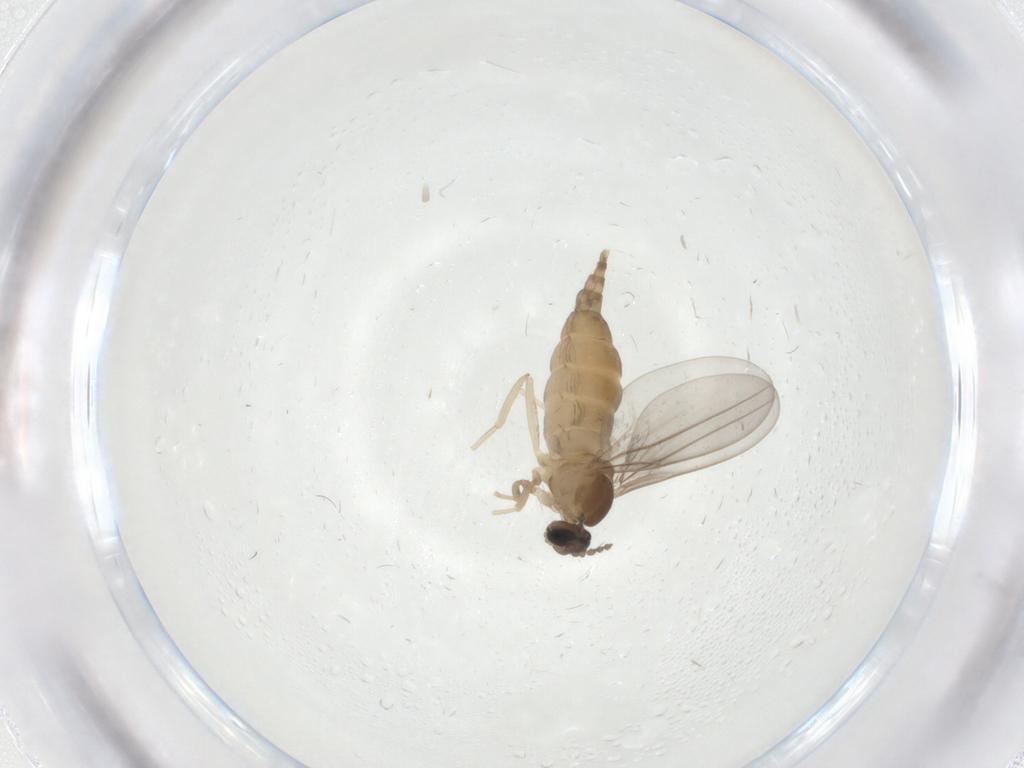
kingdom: Animalia
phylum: Arthropoda
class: Insecta
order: Diptera
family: Cecidomyiidae
